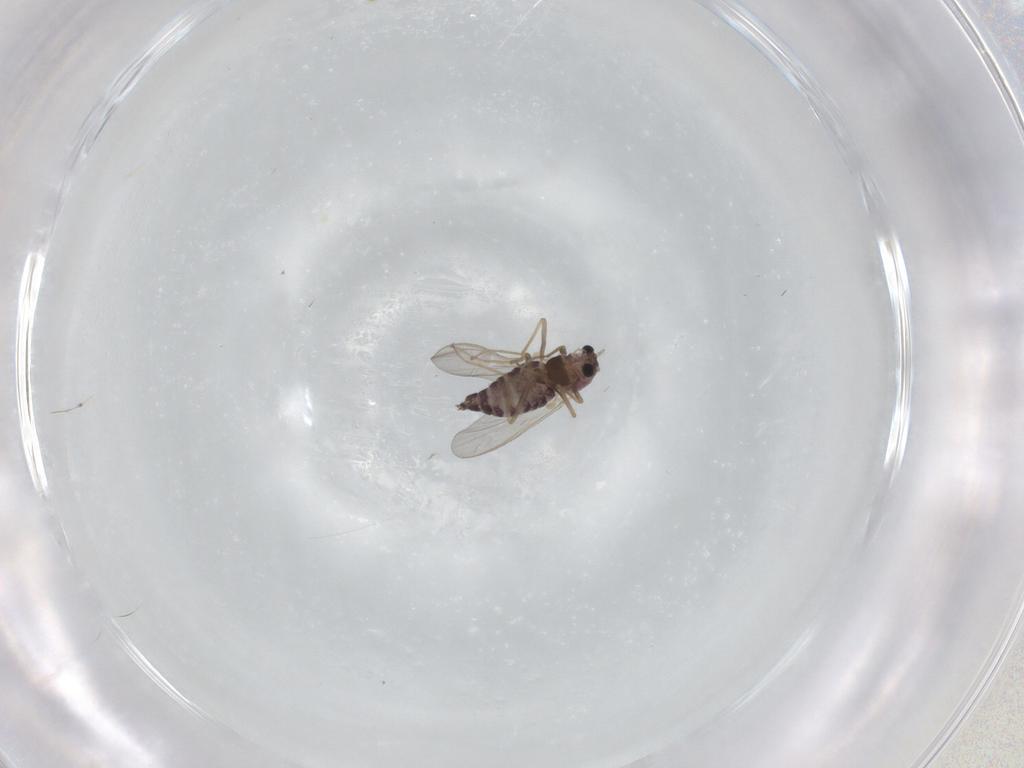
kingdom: Animalia
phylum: Arthropoda
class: Insecta
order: Diptera
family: Chironomidae
